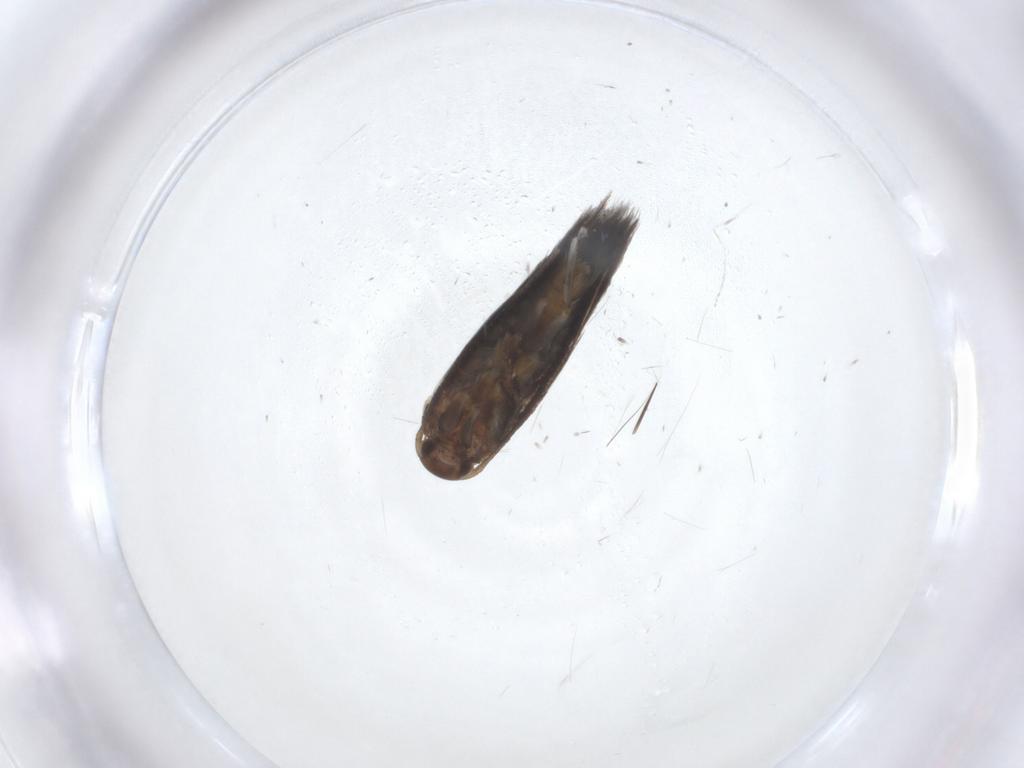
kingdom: Animalia
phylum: Arthropoda
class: Insecta
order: Lepidoptera
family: Elachistidae
